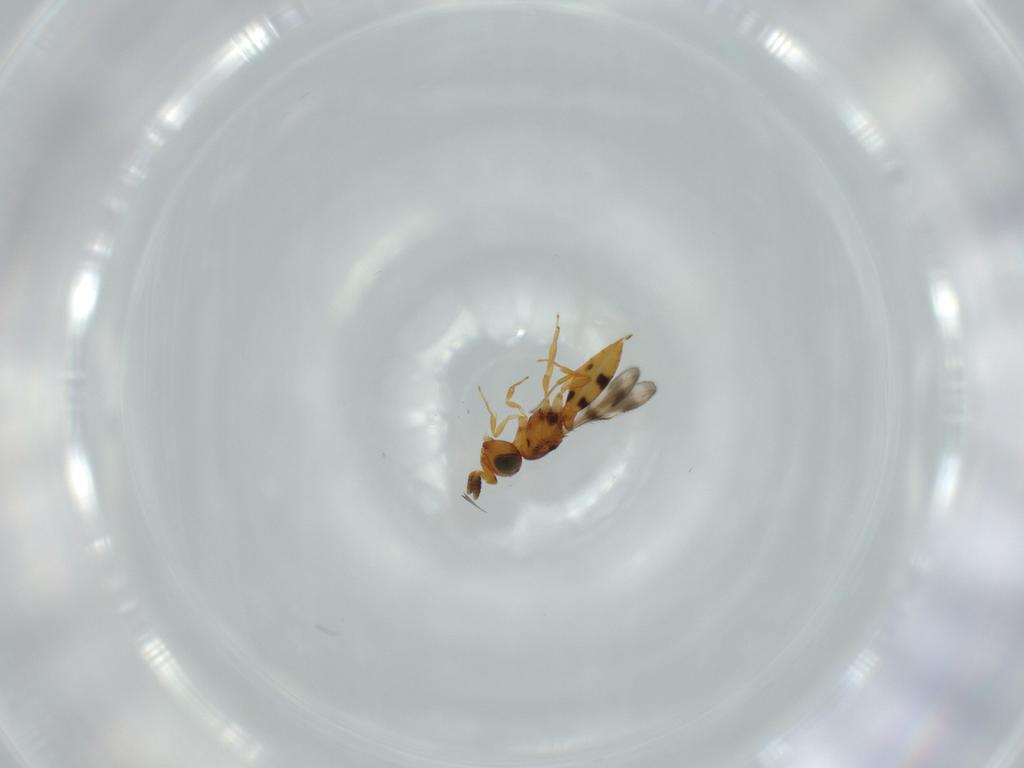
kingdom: Animalia
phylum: Arthropoda
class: Insecta
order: Hymenoptera
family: Scelionidae
